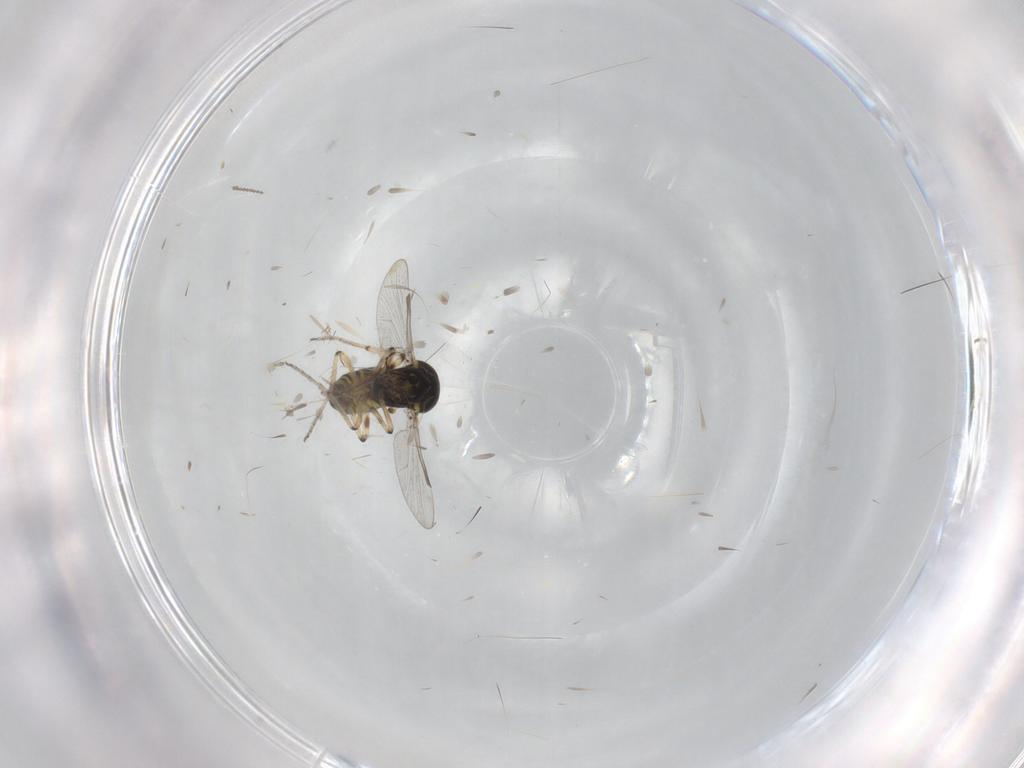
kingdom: Animalia
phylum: Arthropoda
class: Insecta
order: Diptera
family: Cecidomyiidae
